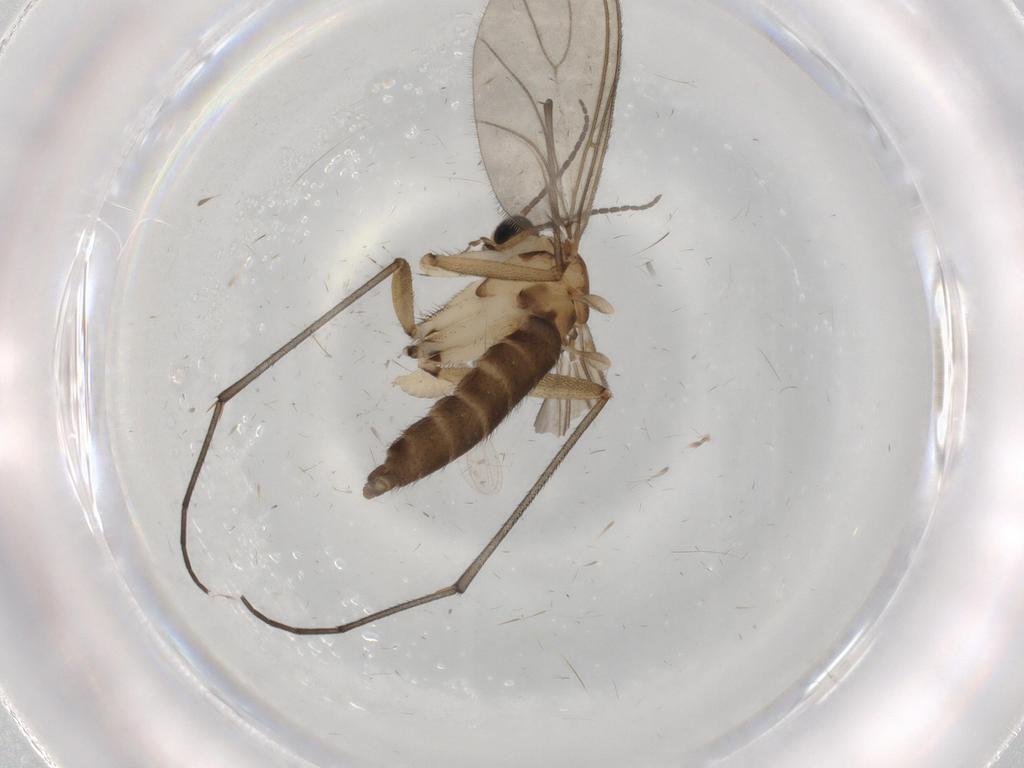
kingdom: Animalia
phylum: Arthropoda
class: Insecta
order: Diptera
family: Sciaridae
